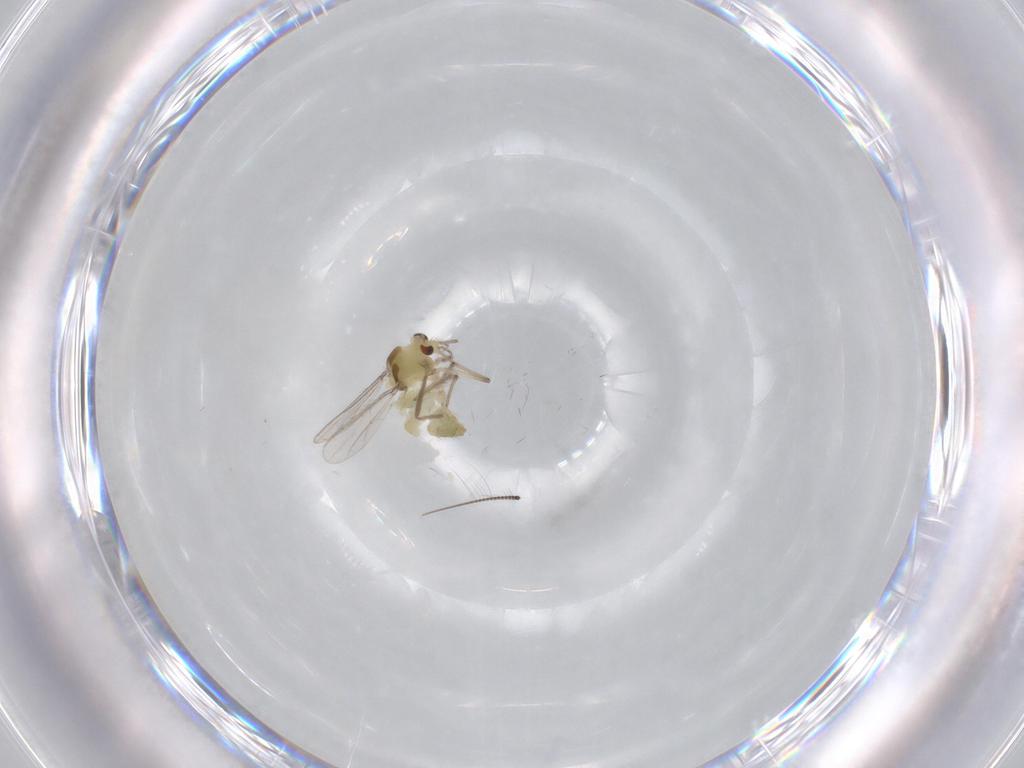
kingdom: Animalia
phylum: Arthropoda
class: Insecta
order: Diptera
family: Chironomidae
